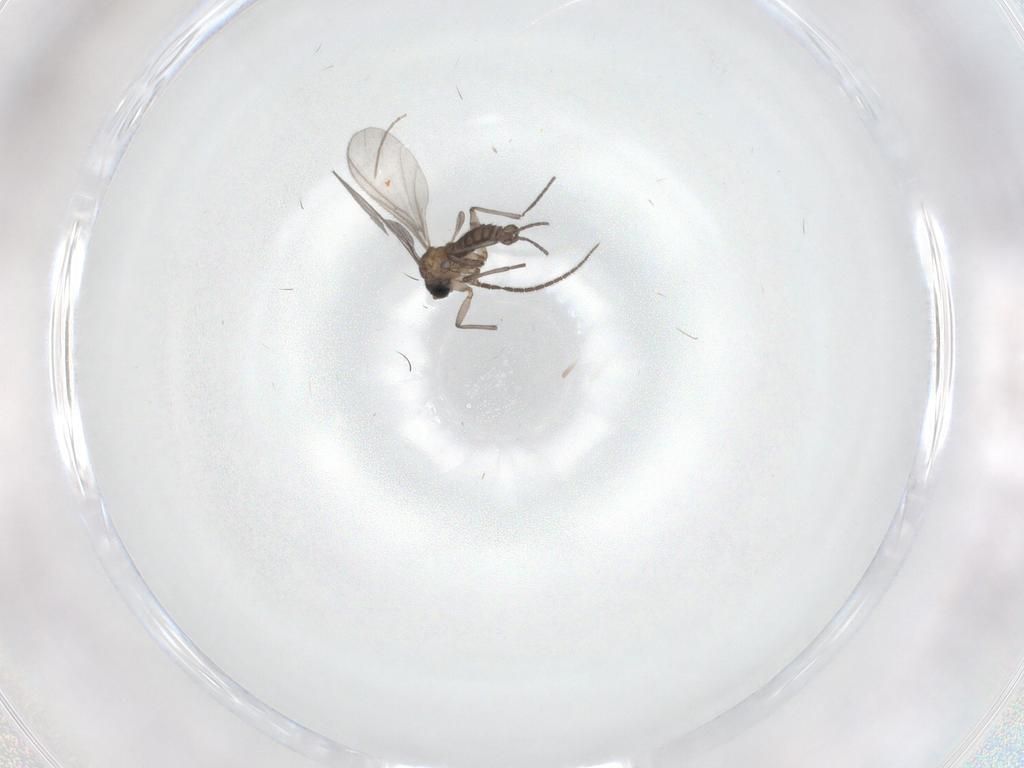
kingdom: Animalia
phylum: Arthropoda
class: Insecta
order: Diptera
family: Sciaridae
